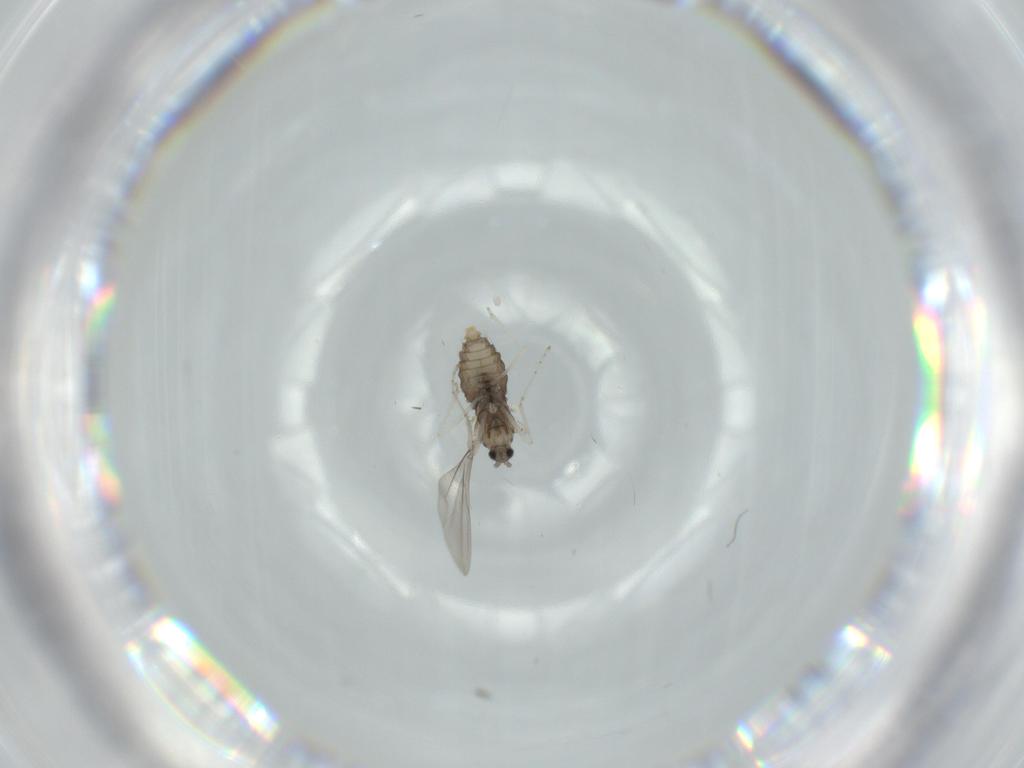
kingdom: Animalia
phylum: Arthropoda
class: Insecta
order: Diptera
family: Cecidomyiidae
